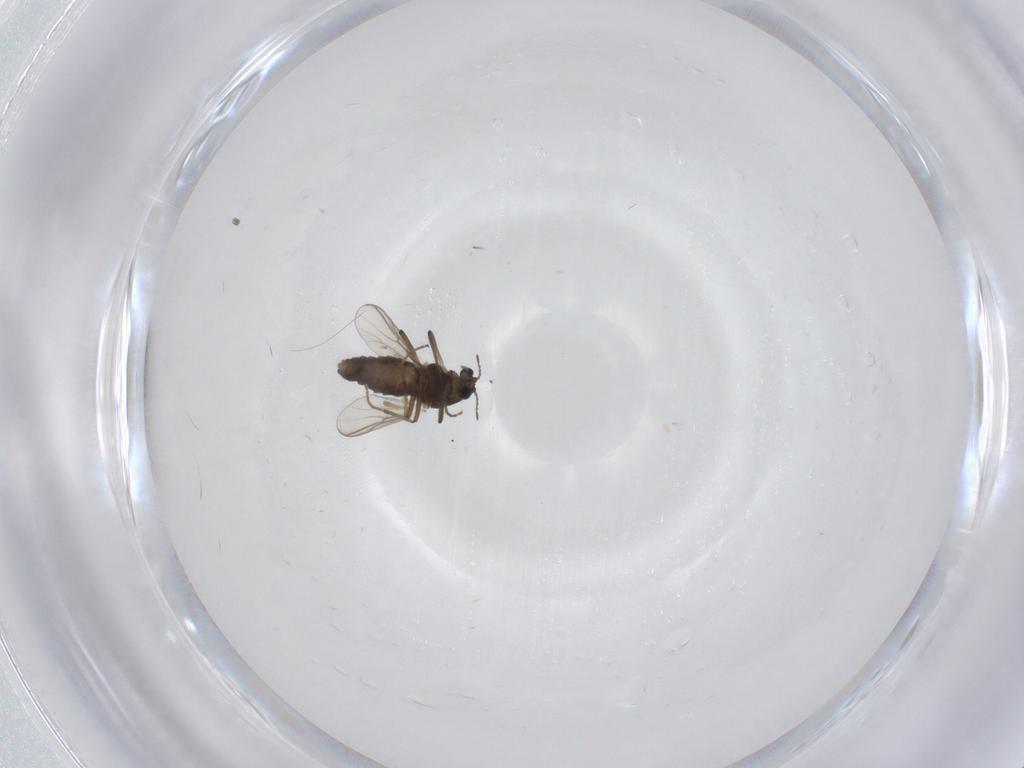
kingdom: Animalia
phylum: Arthropoda
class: Insecta
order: Diptera
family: Chironomidae
